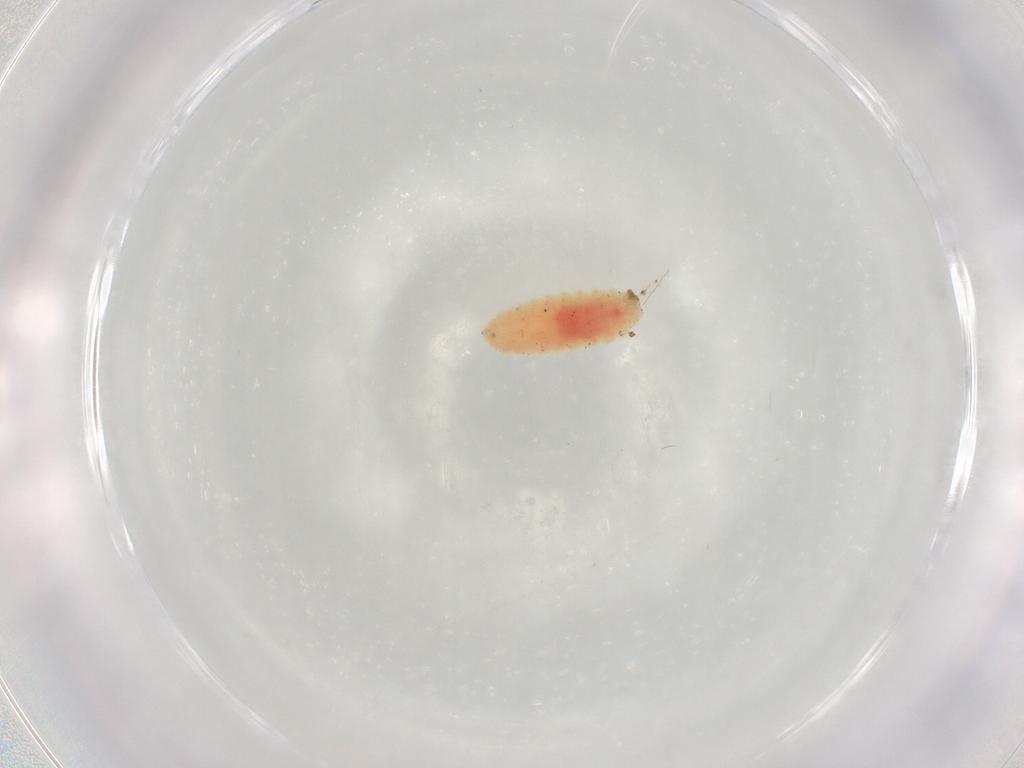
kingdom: Animalia
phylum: Arthropoda
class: Insecta
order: Diptera
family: Cecidomyiidae
